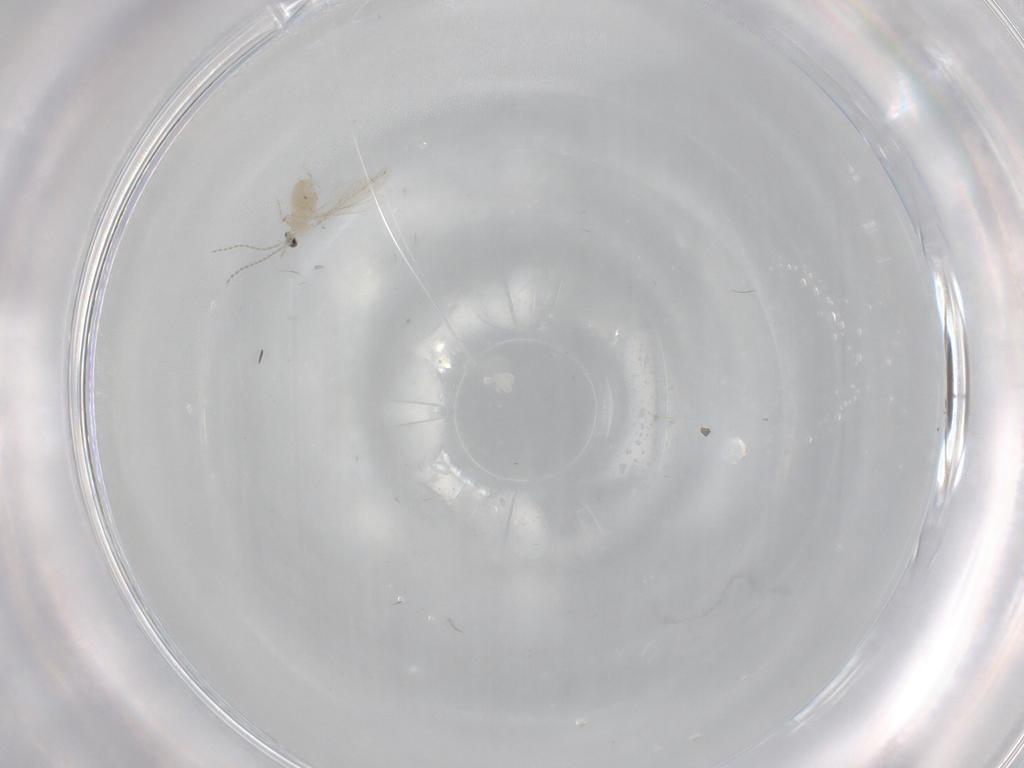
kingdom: Animalia
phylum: Arthropoda
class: Insecta
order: Diptera
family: Cecidomyiidae
